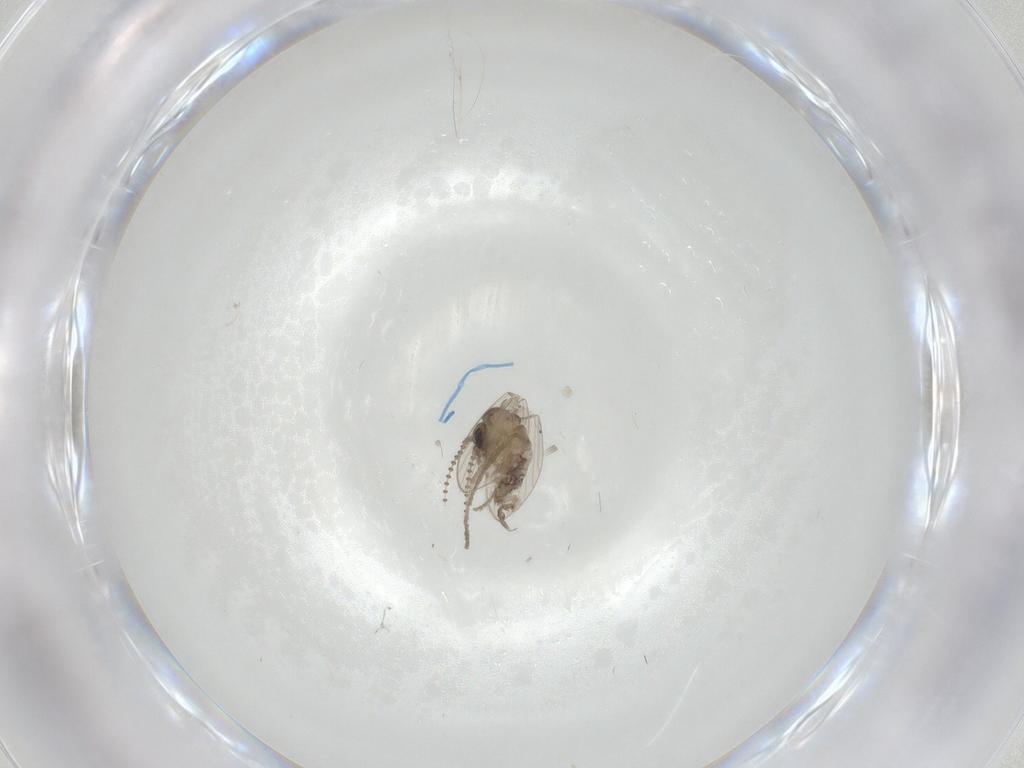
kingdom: Animalia
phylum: Arthropoda
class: Insecta
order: Diptera
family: Psychodidae
